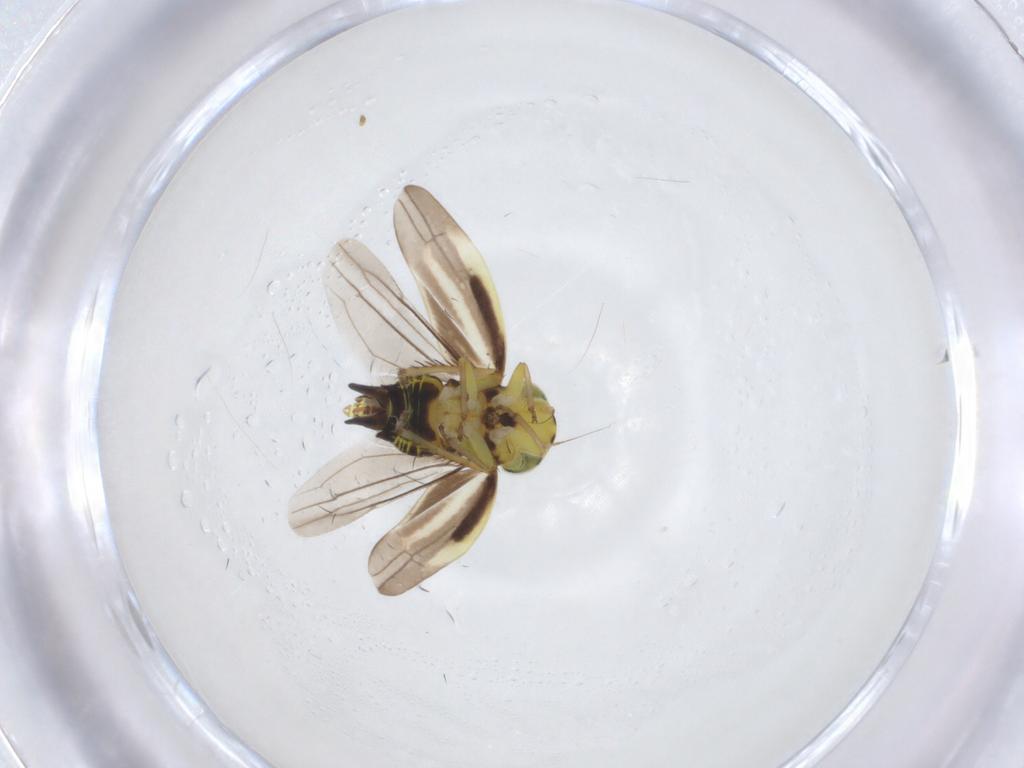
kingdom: Animalia
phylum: Arthropoda
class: Insecta
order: Hemiptera
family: Cicadellidae
